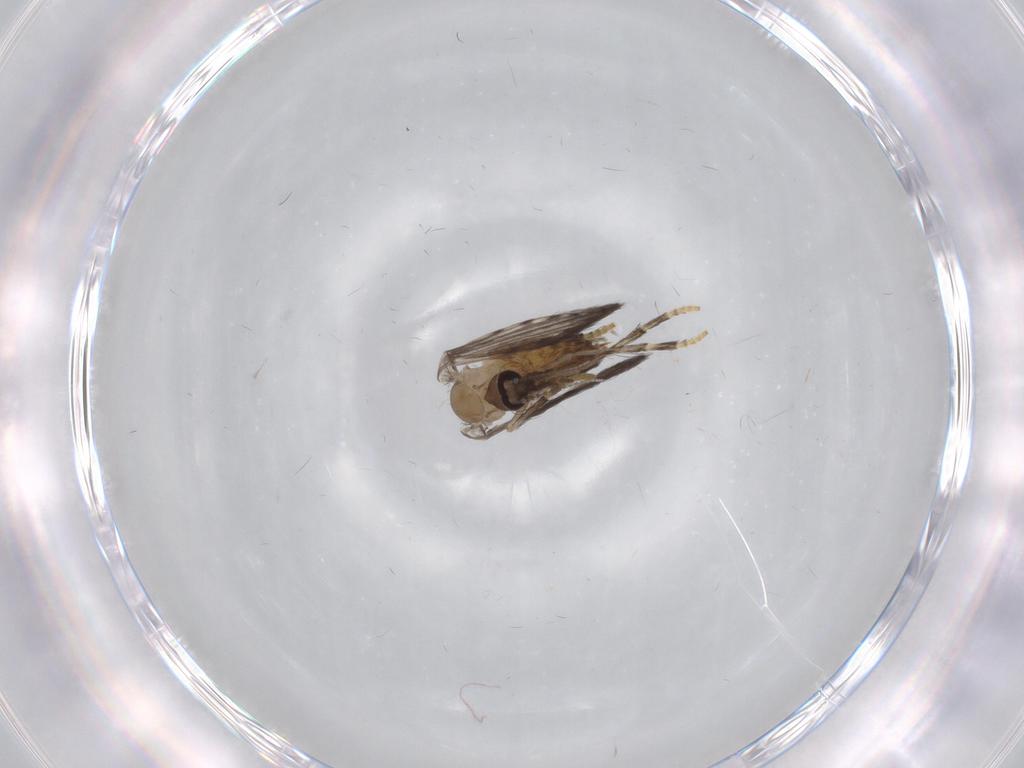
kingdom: Animalia
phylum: Arthropoda
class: Insecta
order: Diptera
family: Psychodidae
